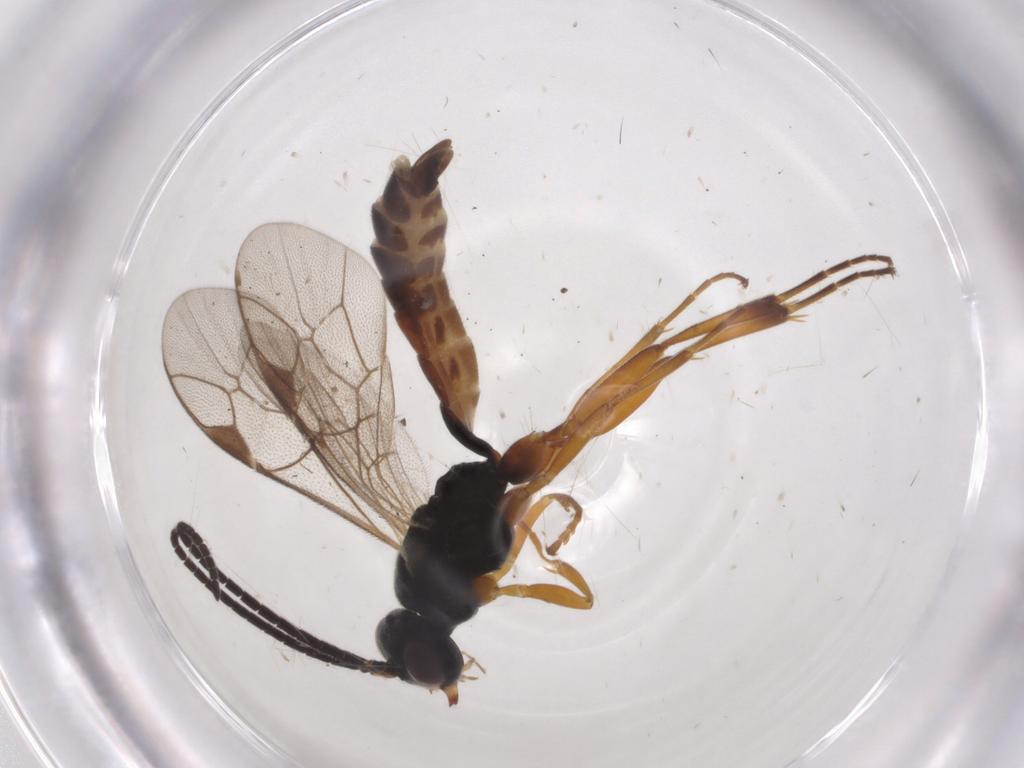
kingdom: Animalia
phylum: Arthropoda
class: Insecta
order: Hymenoptera
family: Ichneumonidae
